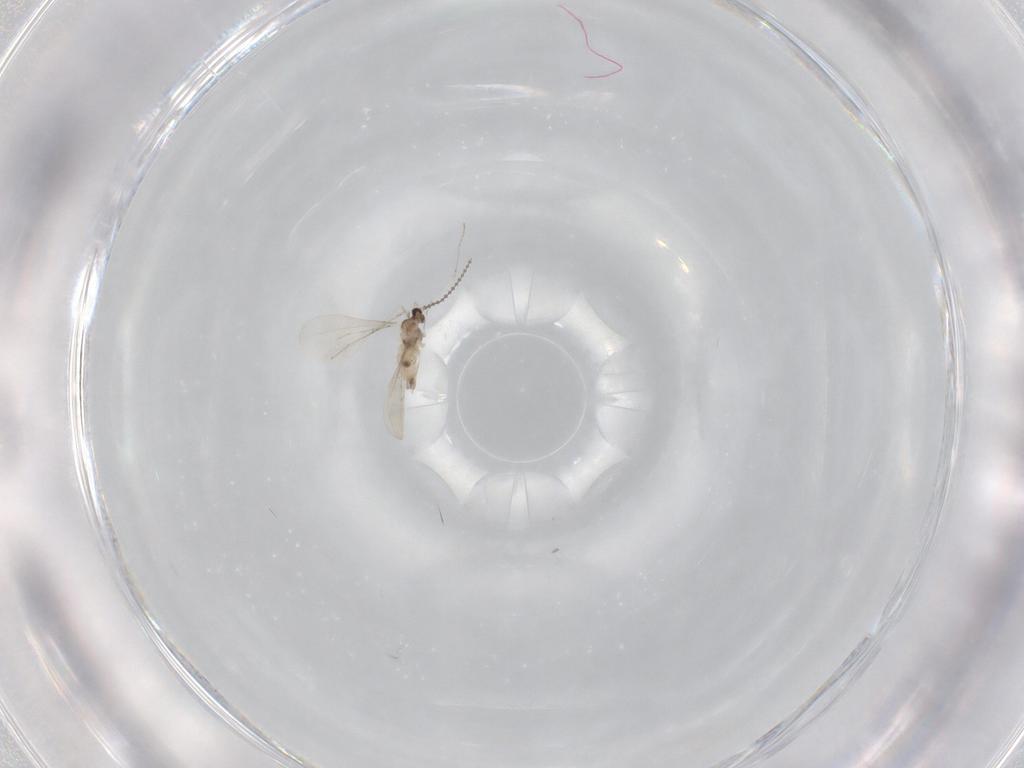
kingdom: Animalia
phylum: Arthropoda
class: Insecta
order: Diptera
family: Cecidomyiidae
